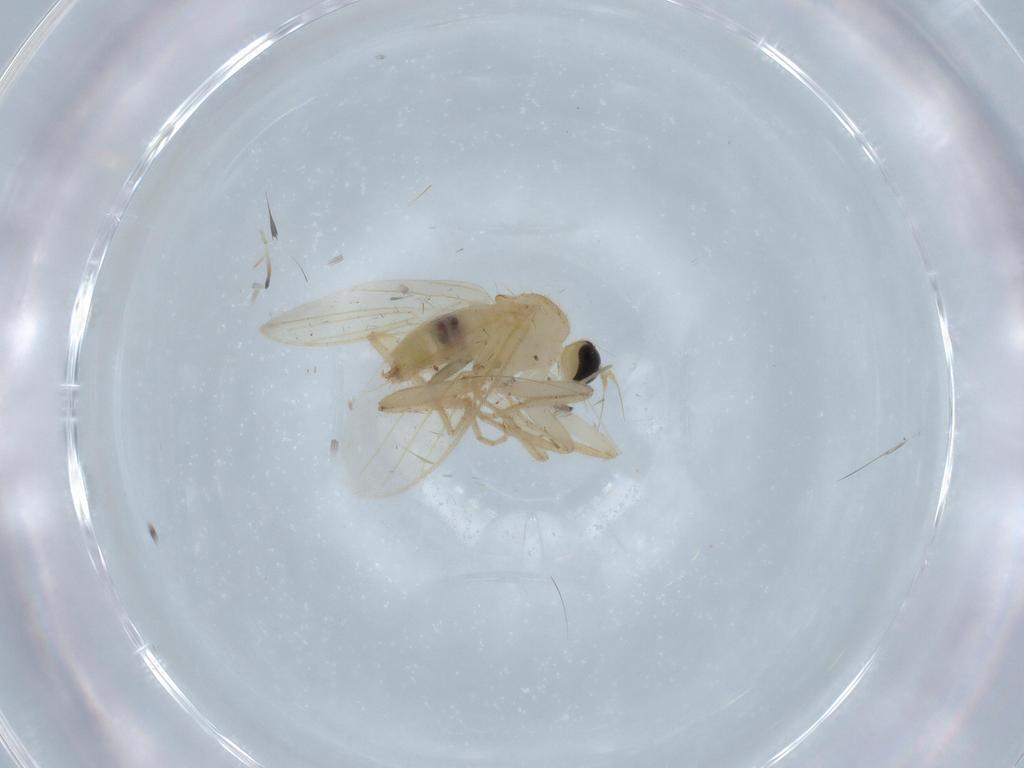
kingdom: Animalia
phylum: Arthropoda
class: Insecta
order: Diptera
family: Hybotidae
